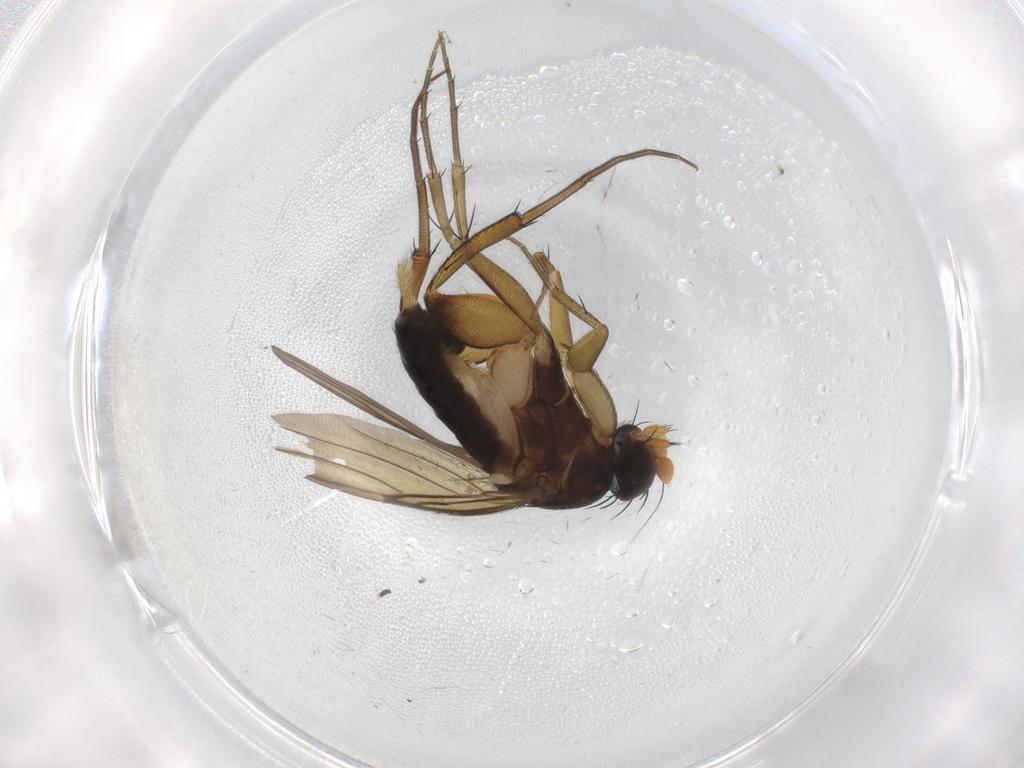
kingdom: Animalia
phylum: Arthropoda
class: Insecta
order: Diptera
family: Phoridae
